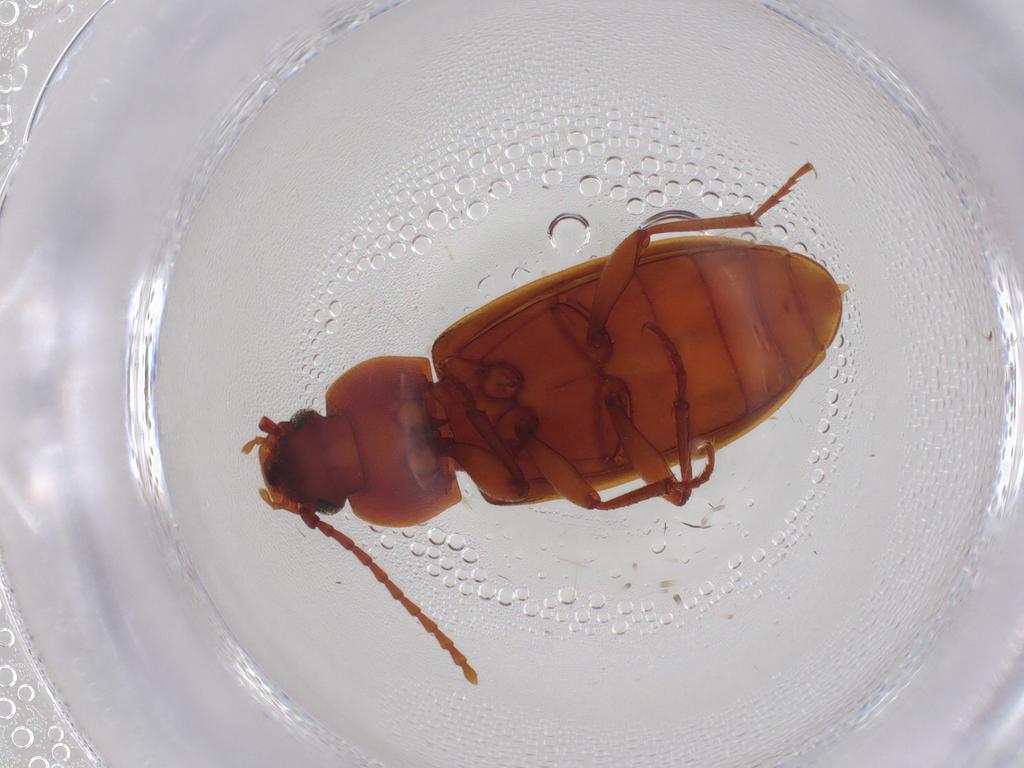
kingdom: Animalia
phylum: Arthropoda
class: Insecta
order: Coleoptera
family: Tenebrionidae
